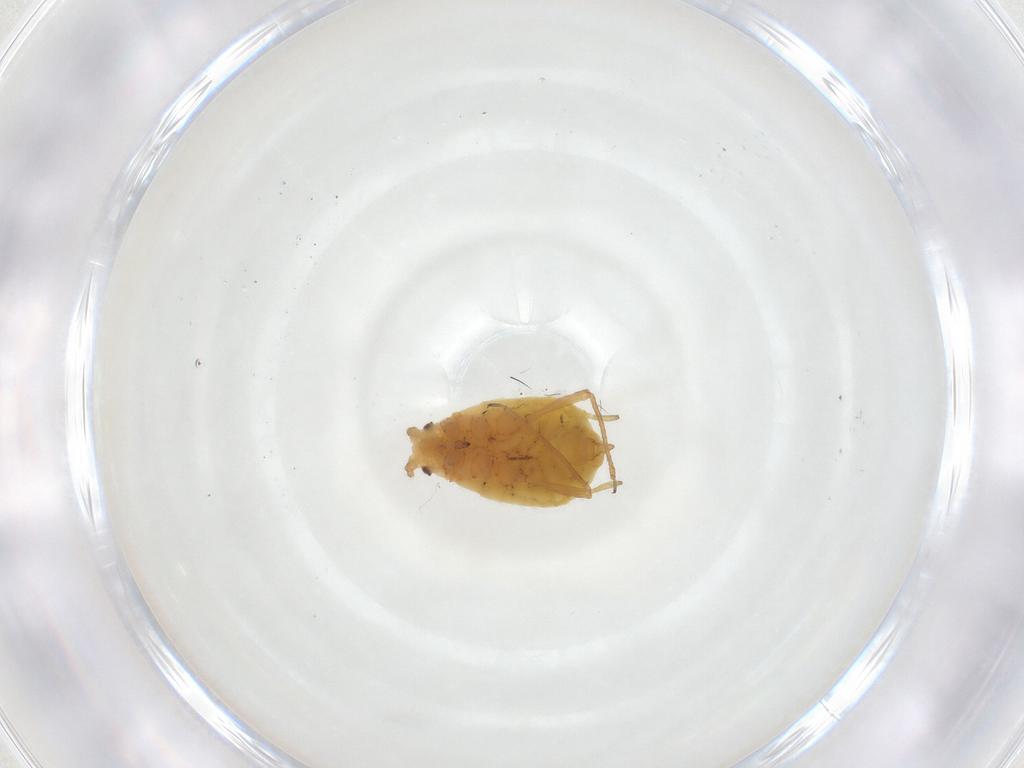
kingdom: Animalia
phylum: Arthropoda
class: Insecta
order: Hemiptera
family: Aphididae
